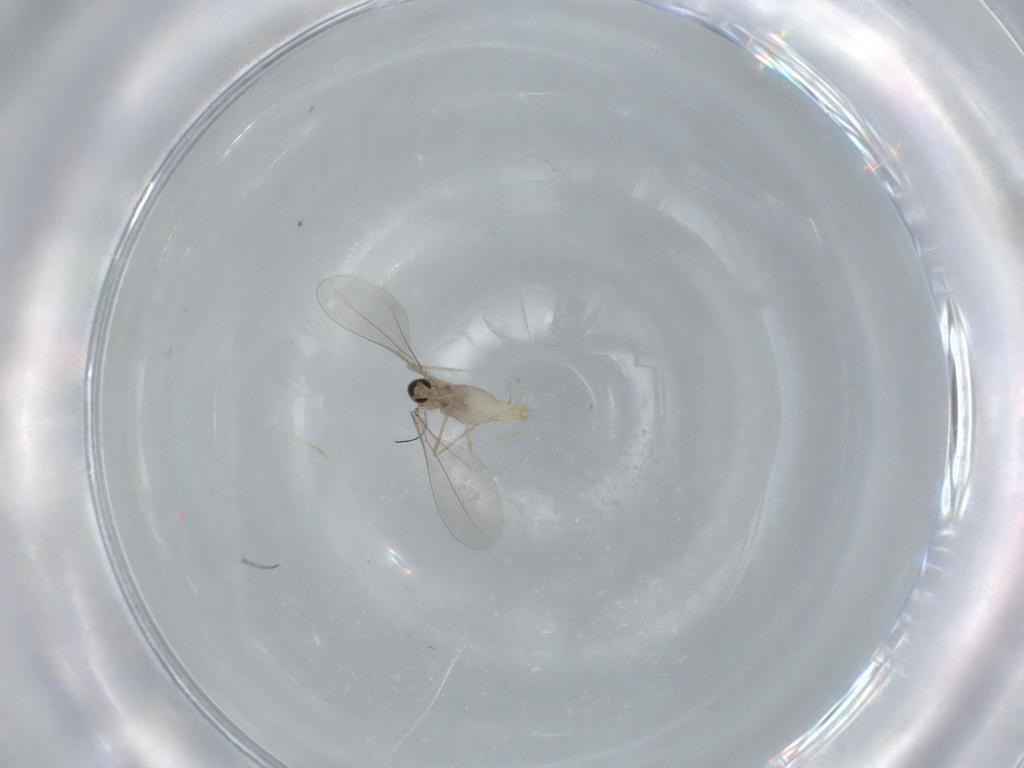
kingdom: Animalia
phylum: Arthropoda
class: Insecta
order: Diptera
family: Cecidomyiidae
